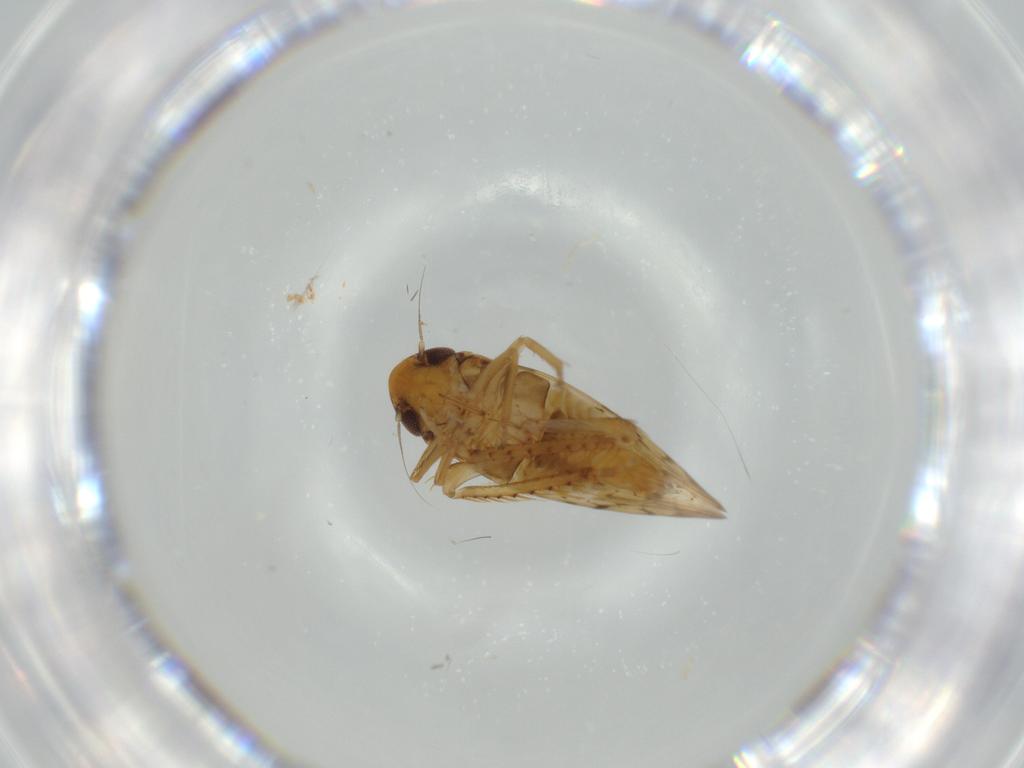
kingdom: Animalia
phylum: Arthropoda
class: Insecta
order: Hemiptera
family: Cicadellidae
